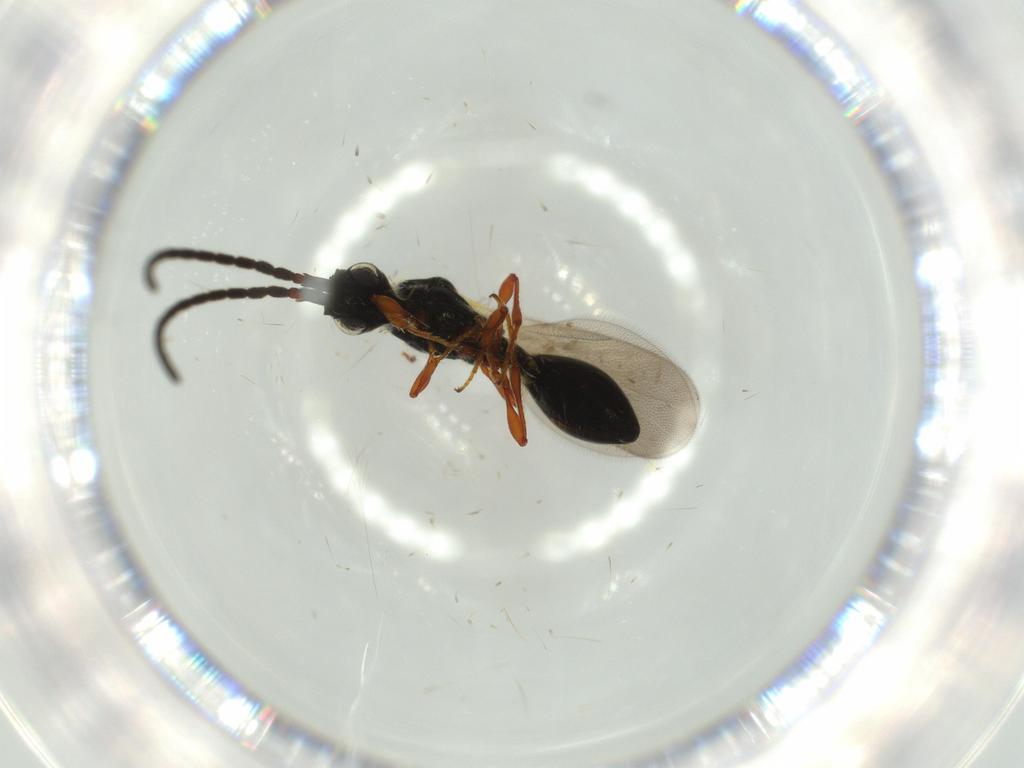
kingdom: Animalia
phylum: Arthropoda
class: Insecta
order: Hymenoptera
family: Diapriidae
